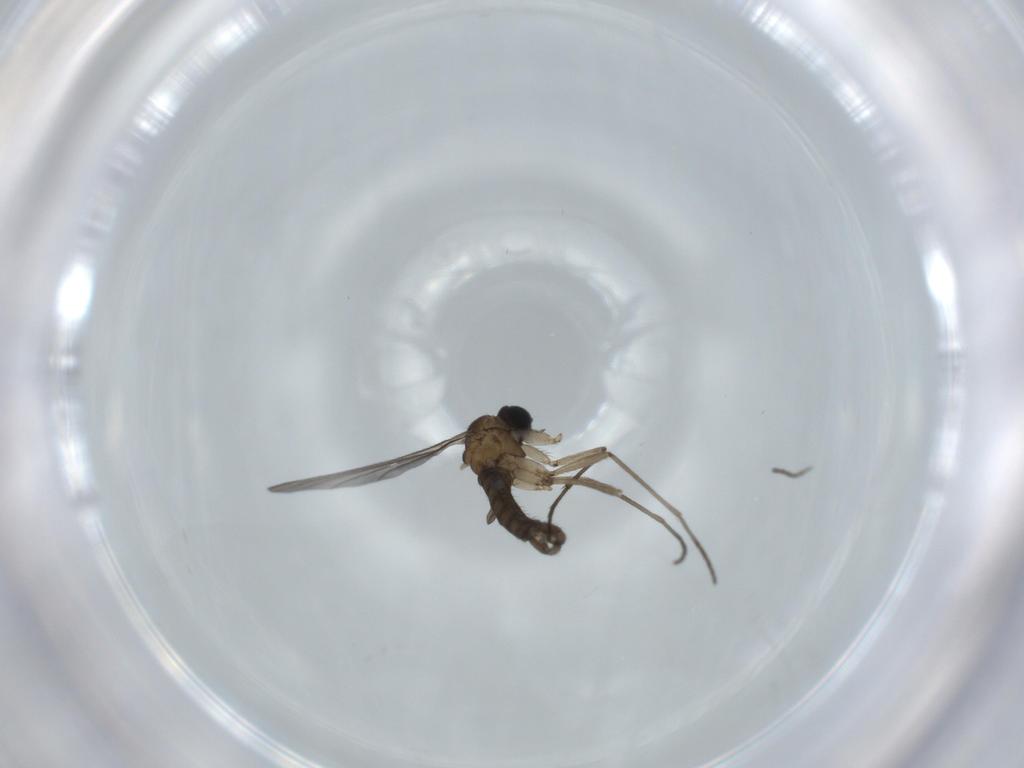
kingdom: Animalia
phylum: Arthropoda
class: Insecta
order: Diptera
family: Sciaridae
